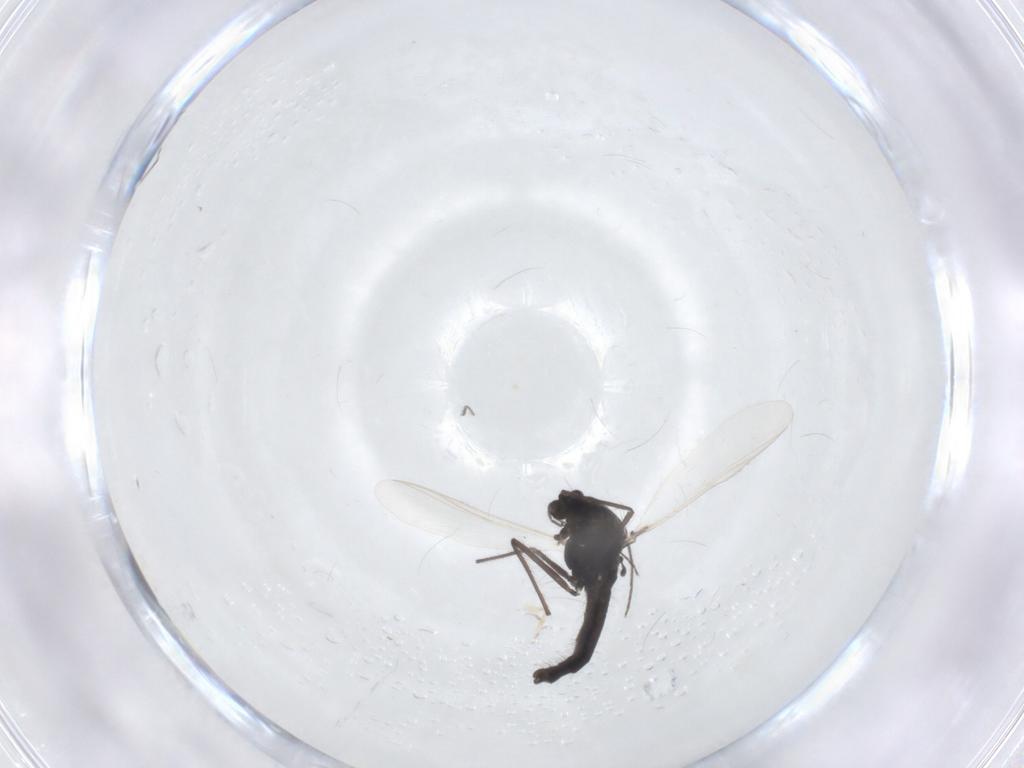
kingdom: Animalia
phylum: Arthropoda
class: Insecta
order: Diptera
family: Chironomidae
